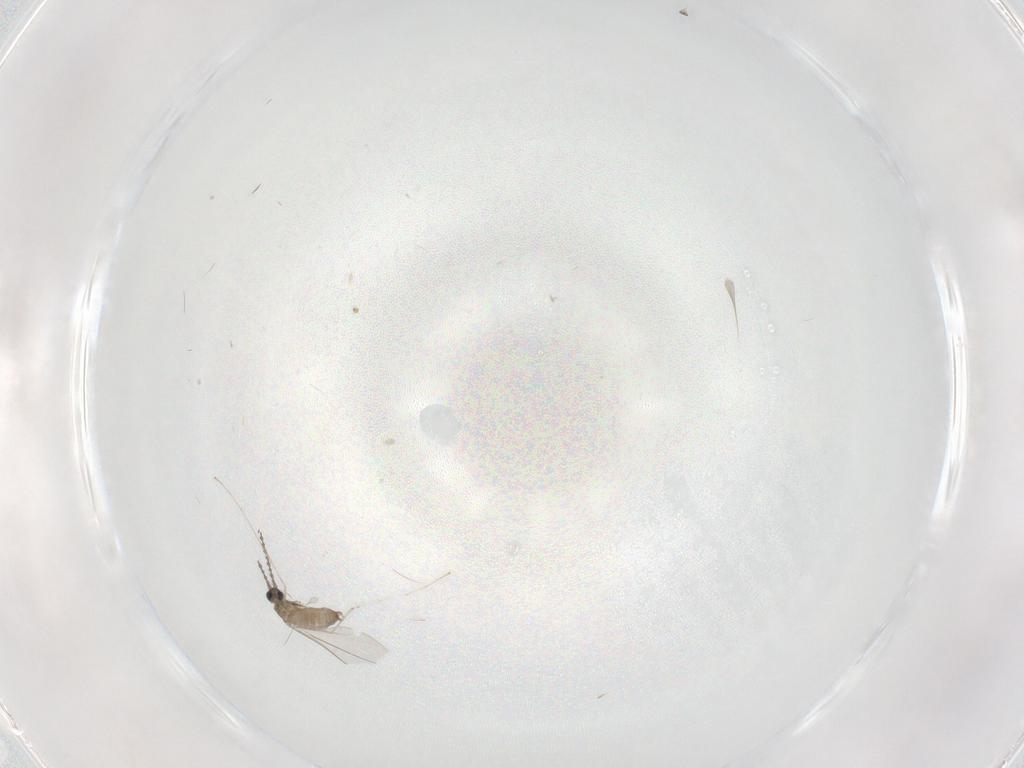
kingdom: Animalia
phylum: Arthropoda
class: Insecta
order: Diptera
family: Cecidomyiidae
